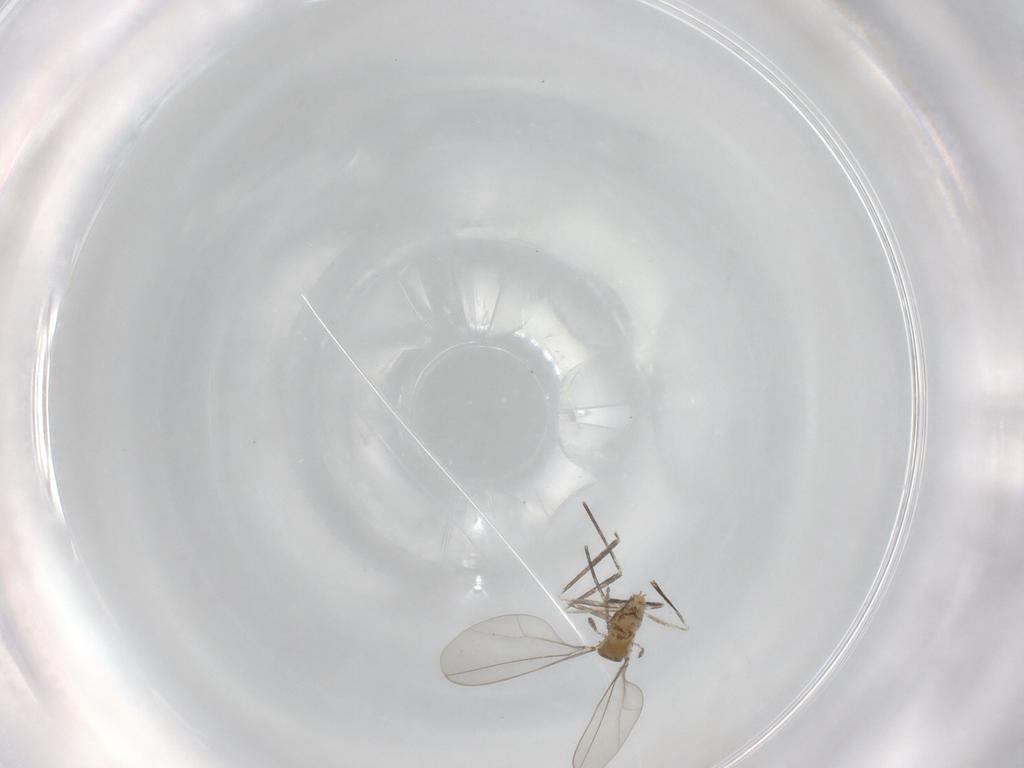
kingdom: Animalia
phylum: Arthropoda
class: Insecta
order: Diptera
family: Cecidomyiidae
